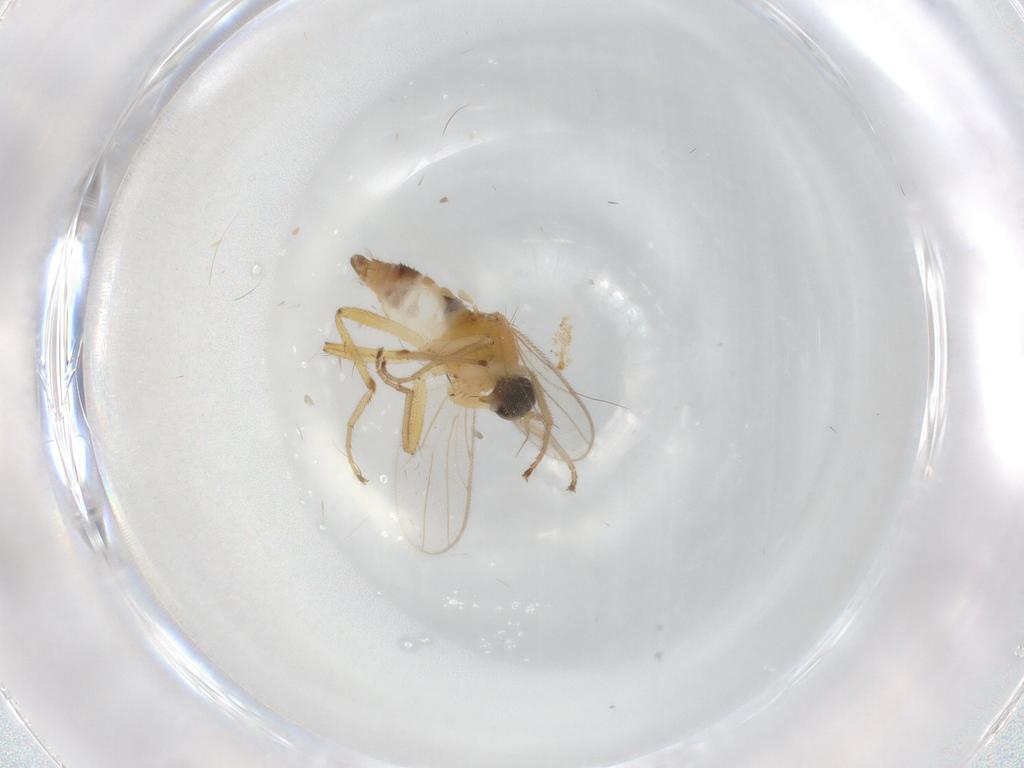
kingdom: Animalia
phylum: Arthropoda
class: Insecta
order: Diptera
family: Hybotidae
